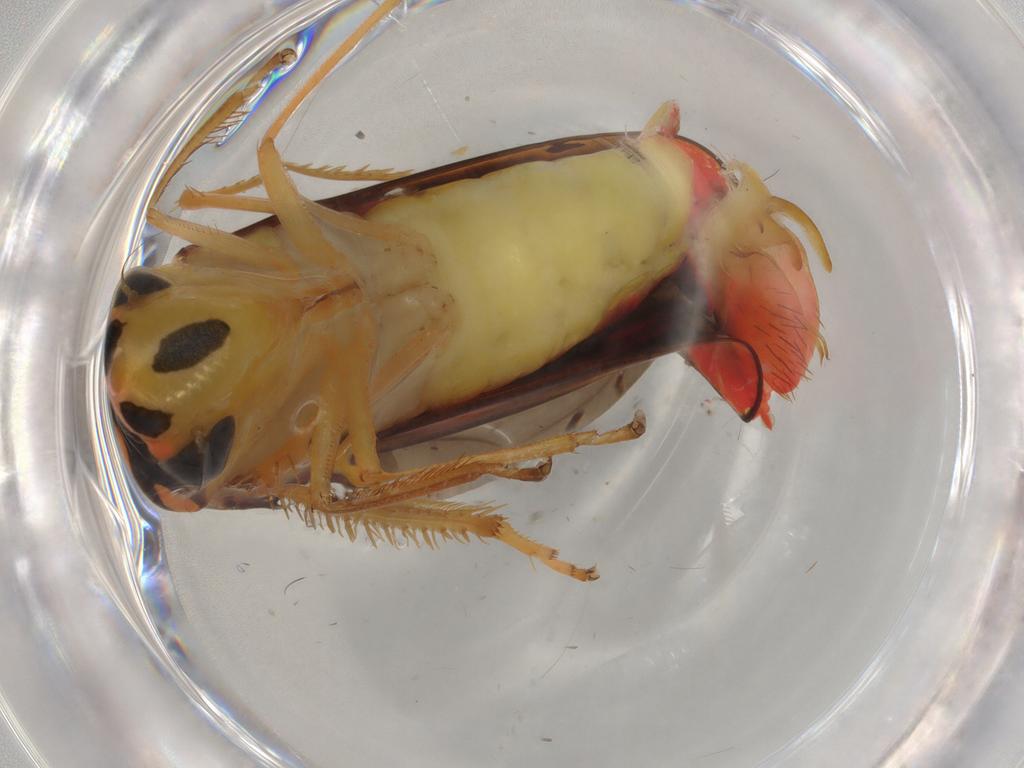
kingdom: Animalia
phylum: Arthropoda
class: Insecta
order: Hemiptera
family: Cicadellidae
